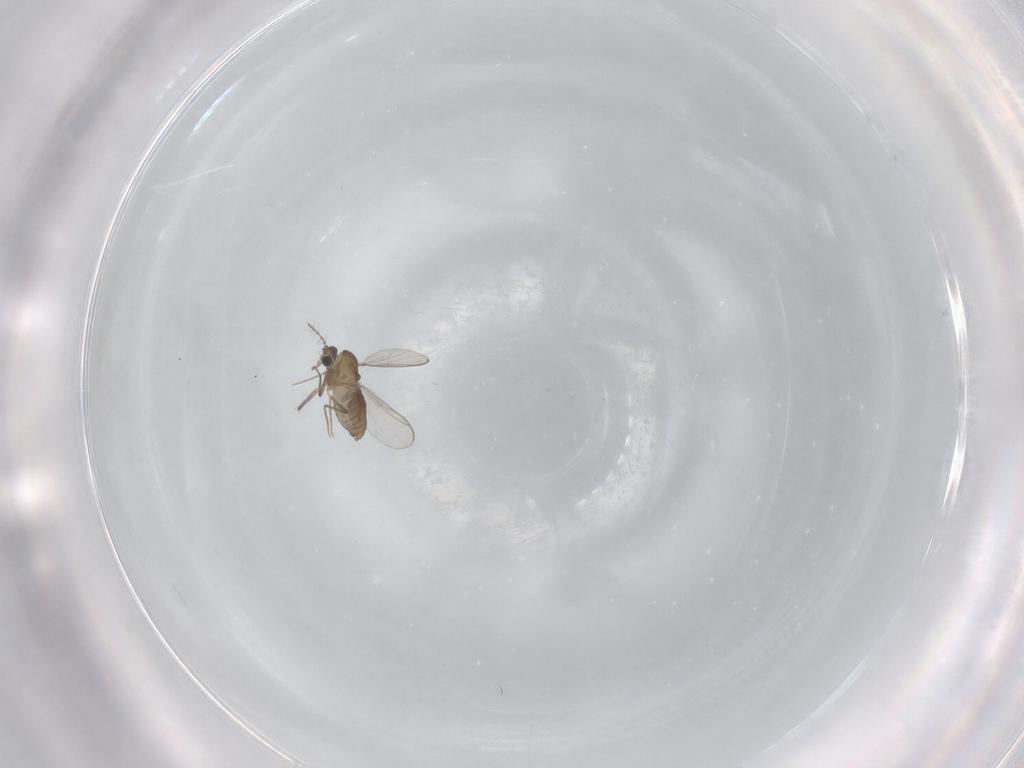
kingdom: Animalia
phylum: Arthropoda
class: Insecta
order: Diptera
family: Chironomidae
